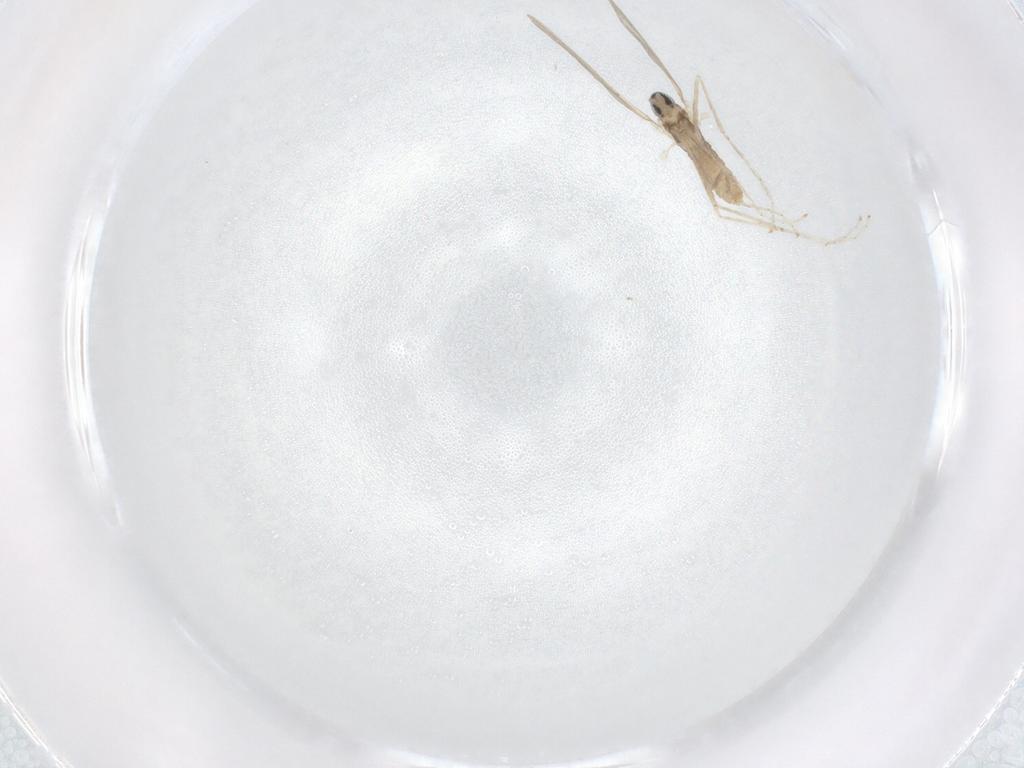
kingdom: Animalia
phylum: Arthropoda
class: Insecta
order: Diptera
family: Cecidomyiidae
